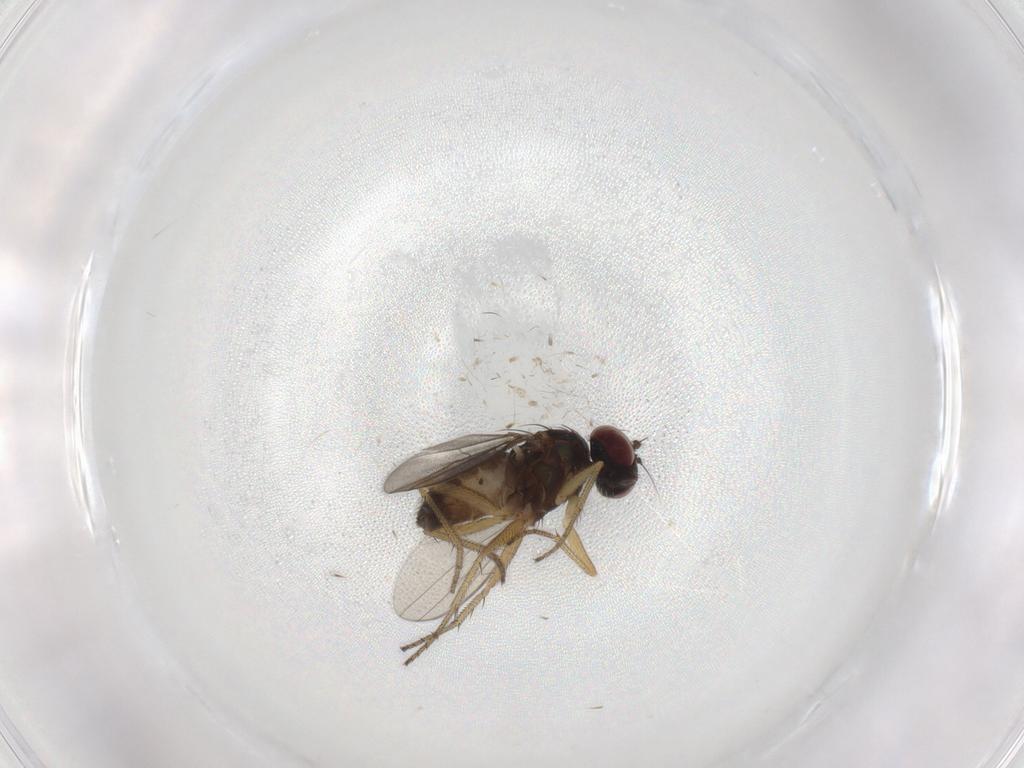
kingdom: Animalia
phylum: Arthropoda
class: Insecta
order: Diptera
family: Dolichopodidae
